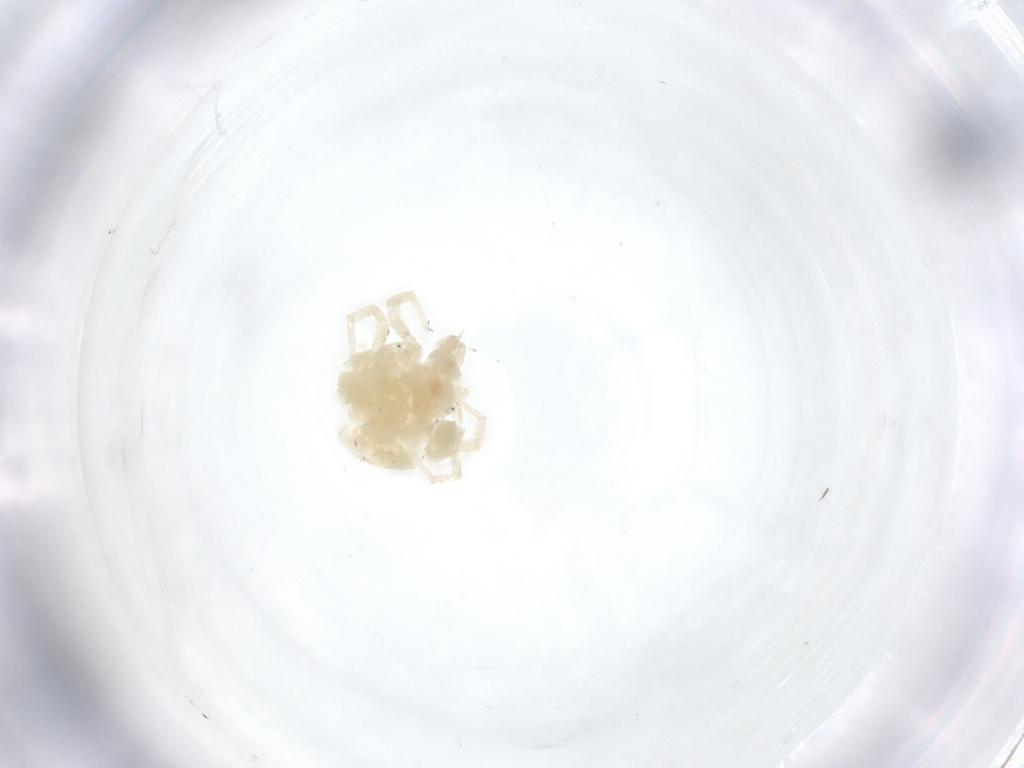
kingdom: Animalia
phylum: Arthropoda
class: Arachnida
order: Trombidiformes
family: Anystidae
